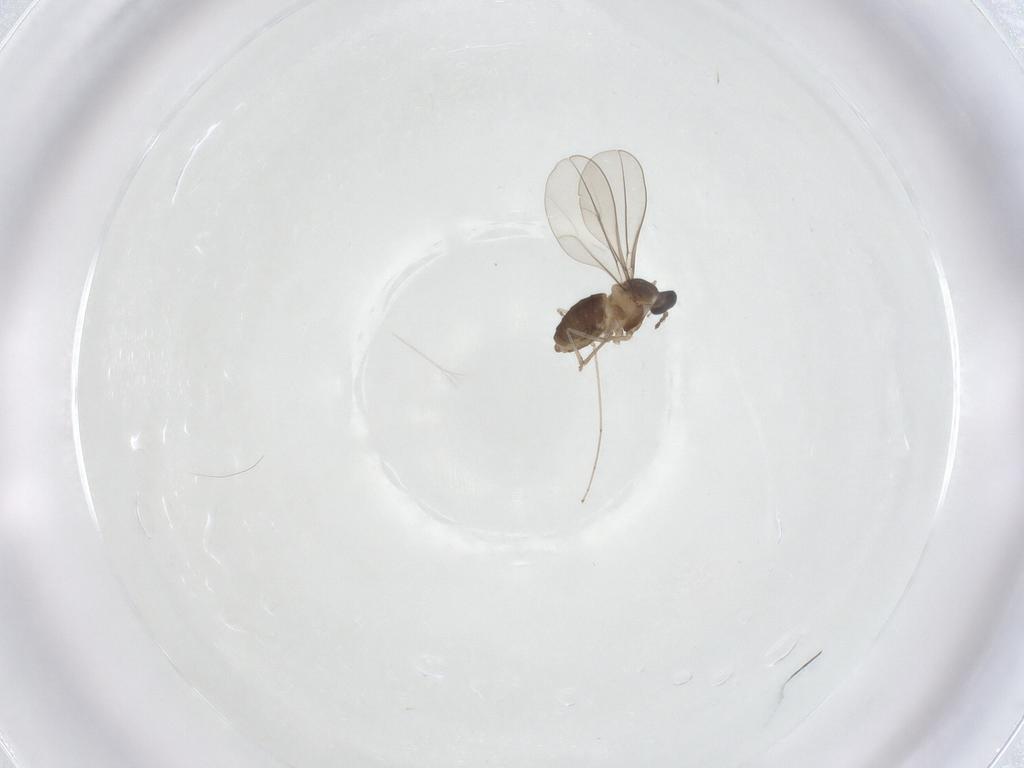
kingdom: Animalia
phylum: Arthropoda
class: Insecta
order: Diptera
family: Cecidomyiidae
